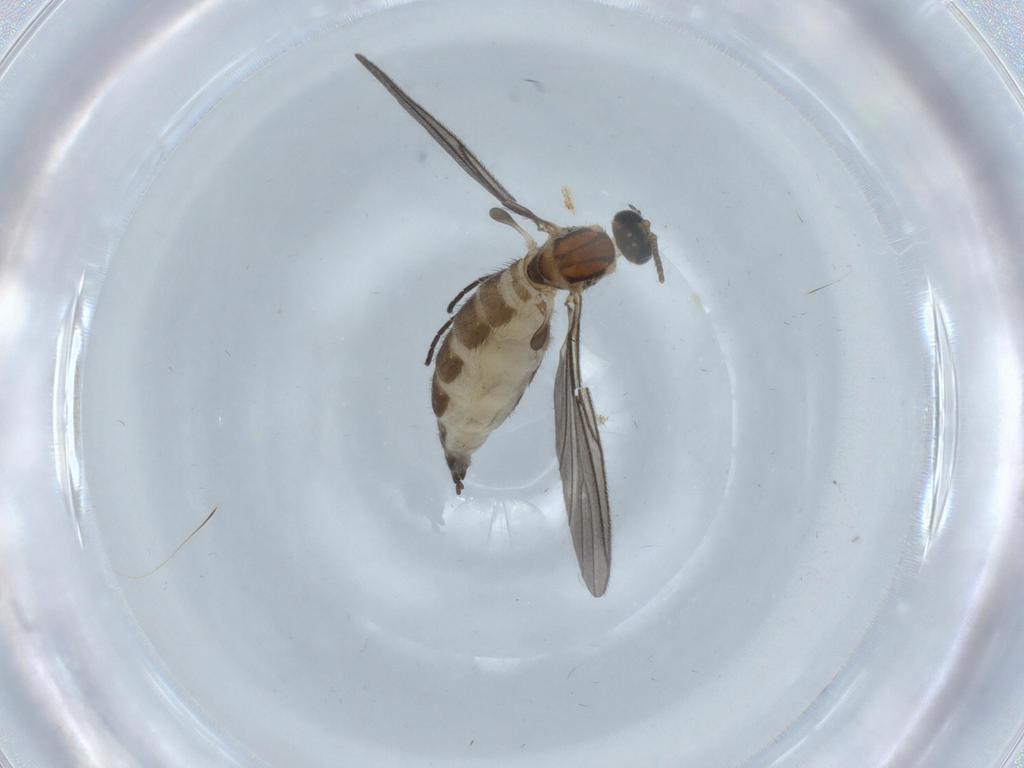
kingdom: Animalia
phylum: Arthropoda
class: Insecta
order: Diptera
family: Sciaridae
